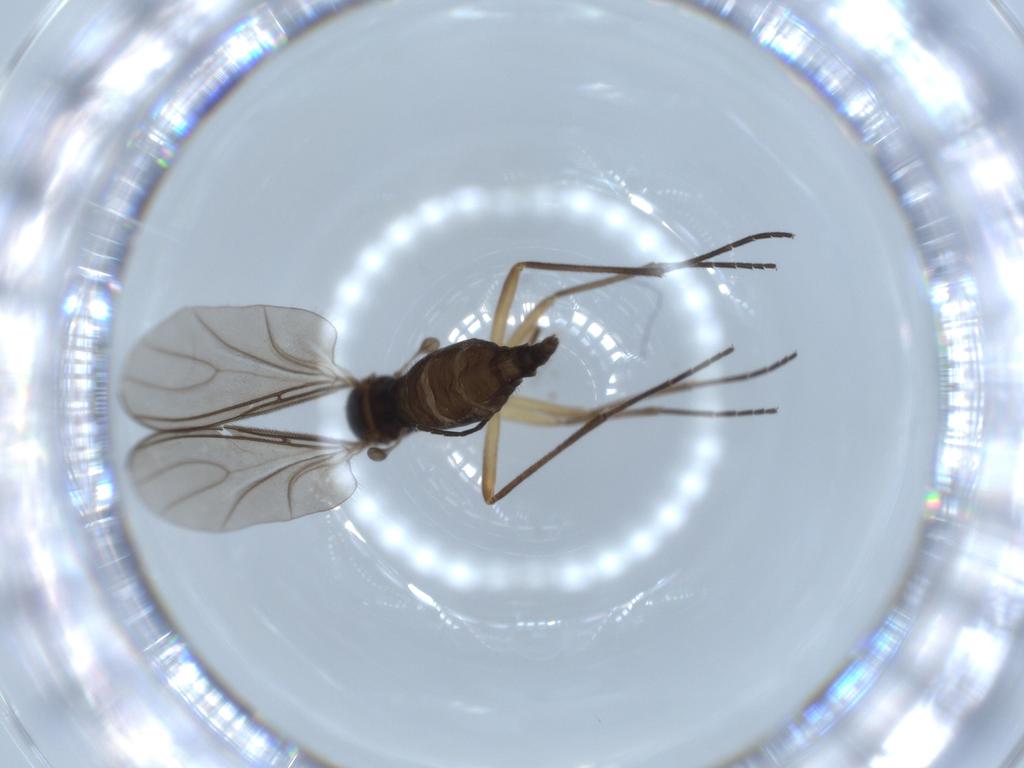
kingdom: Animalia
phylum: Arthropoda
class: Insecta
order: Diptera
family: Sciaridae
